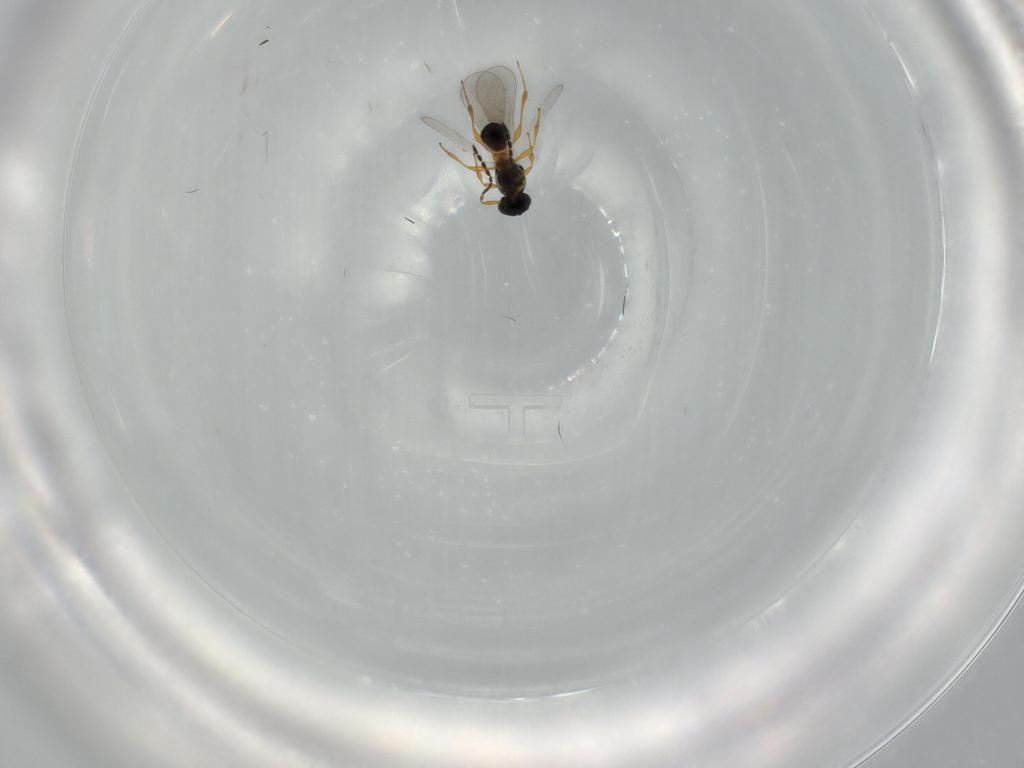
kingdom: Animalia
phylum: Arthropoda
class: Insecta
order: Hymenoptera
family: Platygastridae
